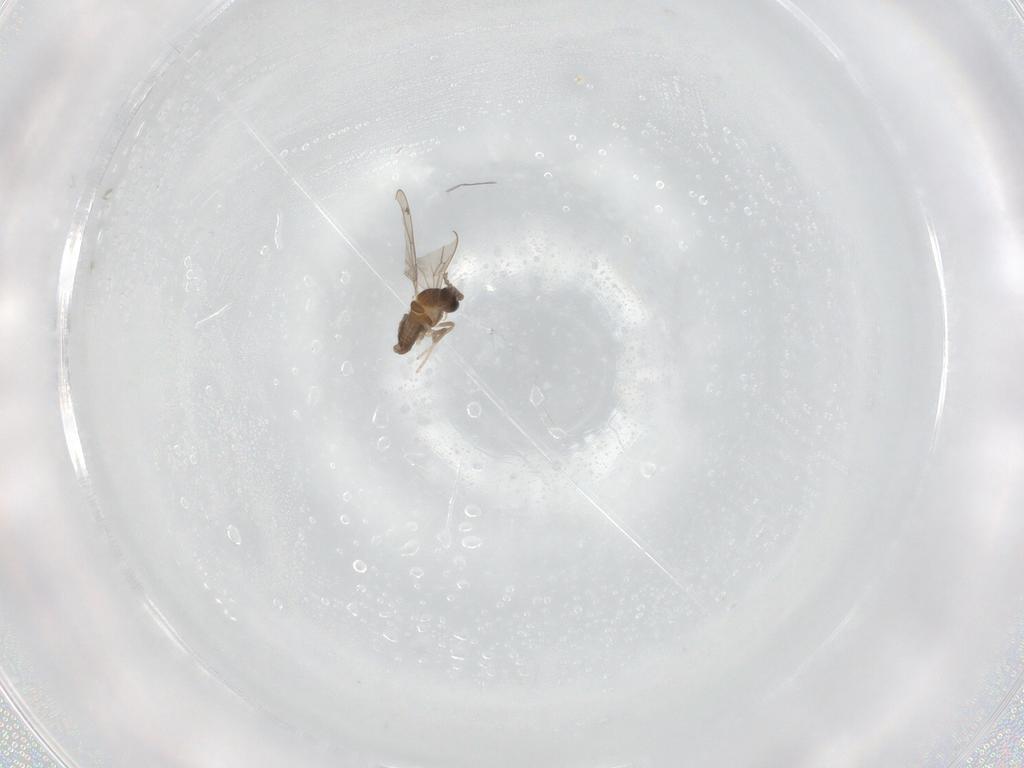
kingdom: Animalia
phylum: Arthropoda
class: Insecta
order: Diptera
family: Cecidomyiidae
